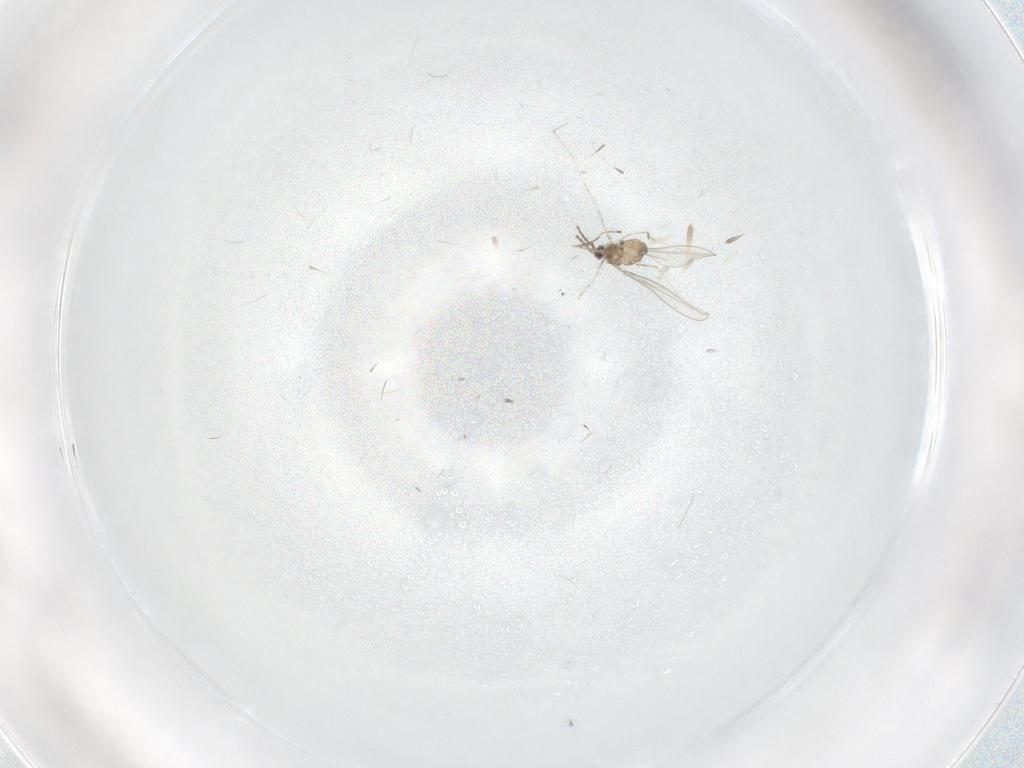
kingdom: Animalia
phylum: Arthropoda
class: Insecta
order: Diptera
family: Cecidomyiidae
